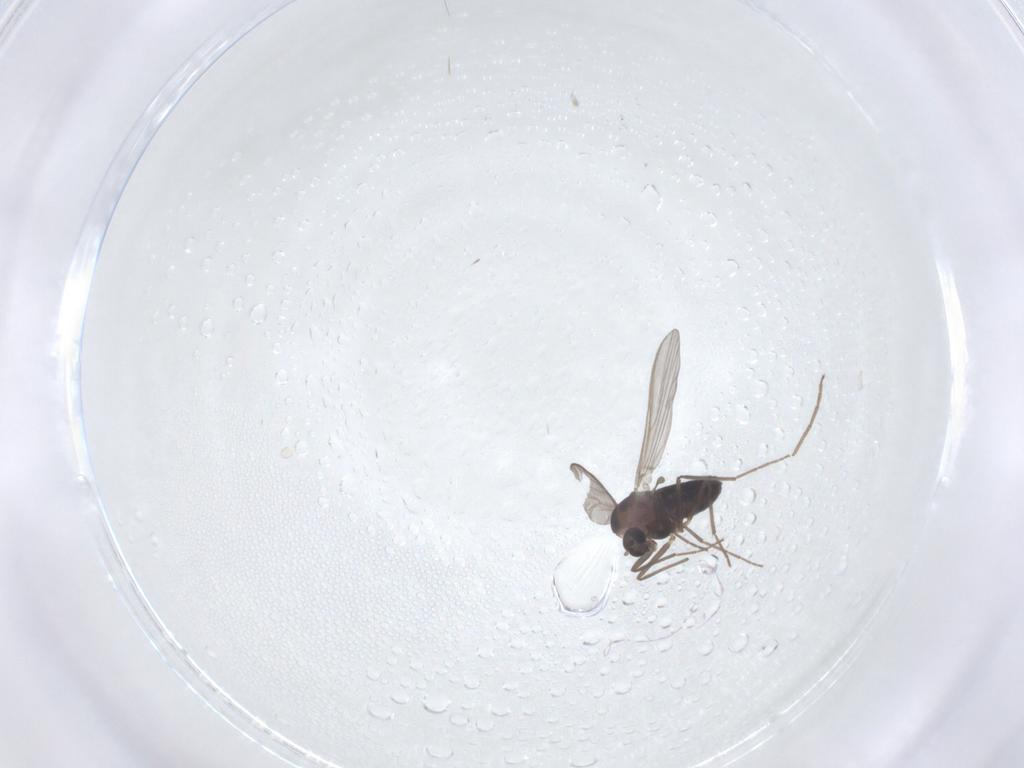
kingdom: Animalia
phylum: Arthropoda
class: Insecta
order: Diptera
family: Chironomidae
